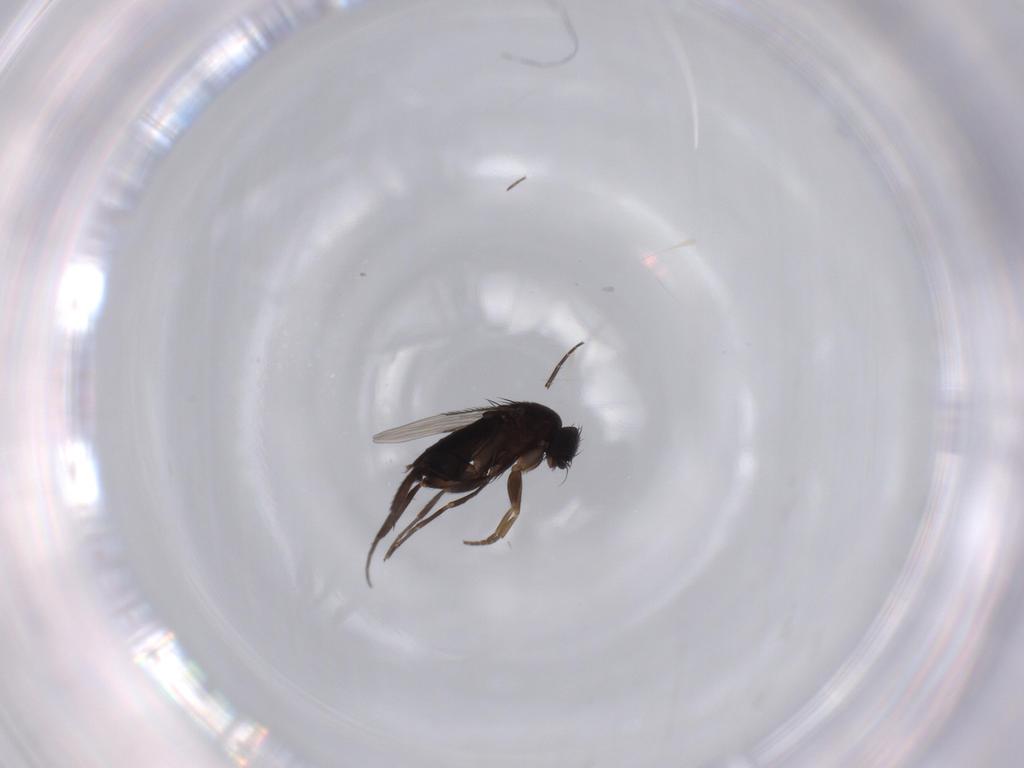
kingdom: Animalia
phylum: Arthropoda
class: Insecta
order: Diptera
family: Phoridae
